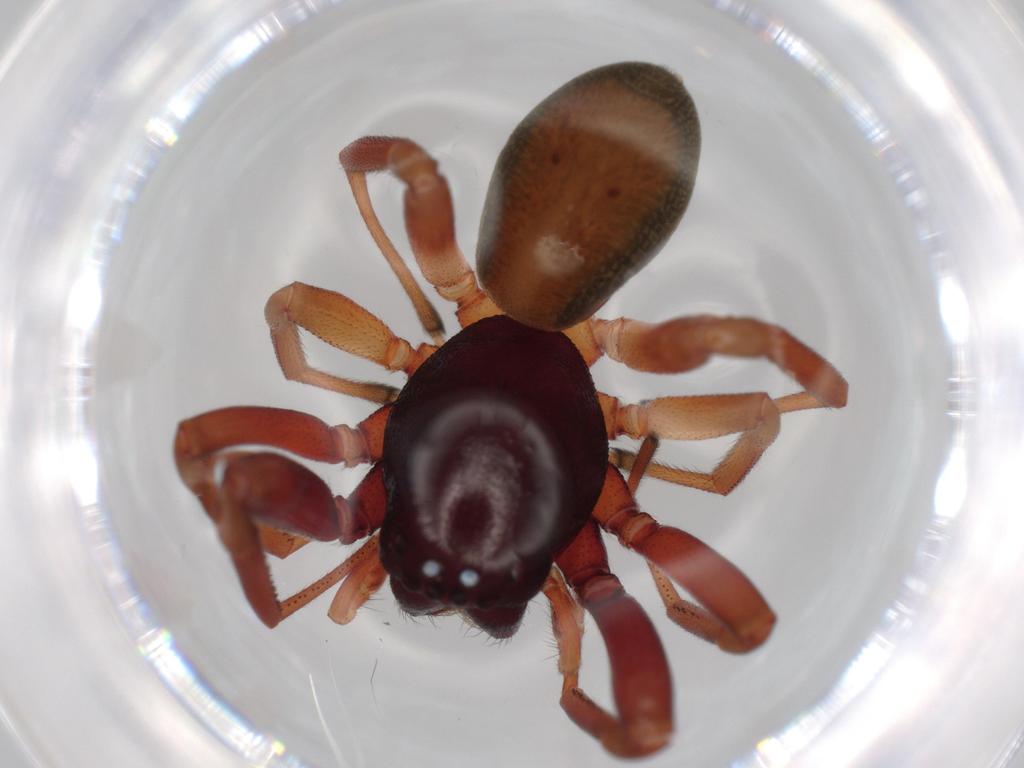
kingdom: Animalia
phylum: Arthropoda
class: Arachnida
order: Araneae
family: Trachelidae
